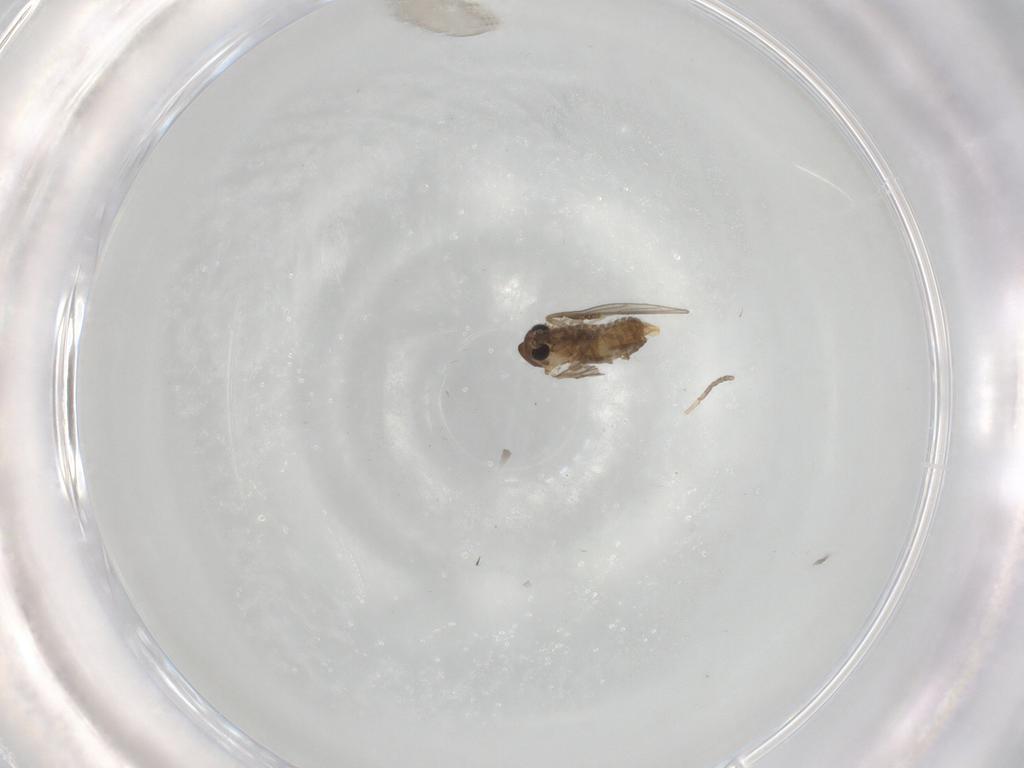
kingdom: Animalia
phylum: Arthropoda
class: Insecta
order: Diptera
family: Chironomidae
